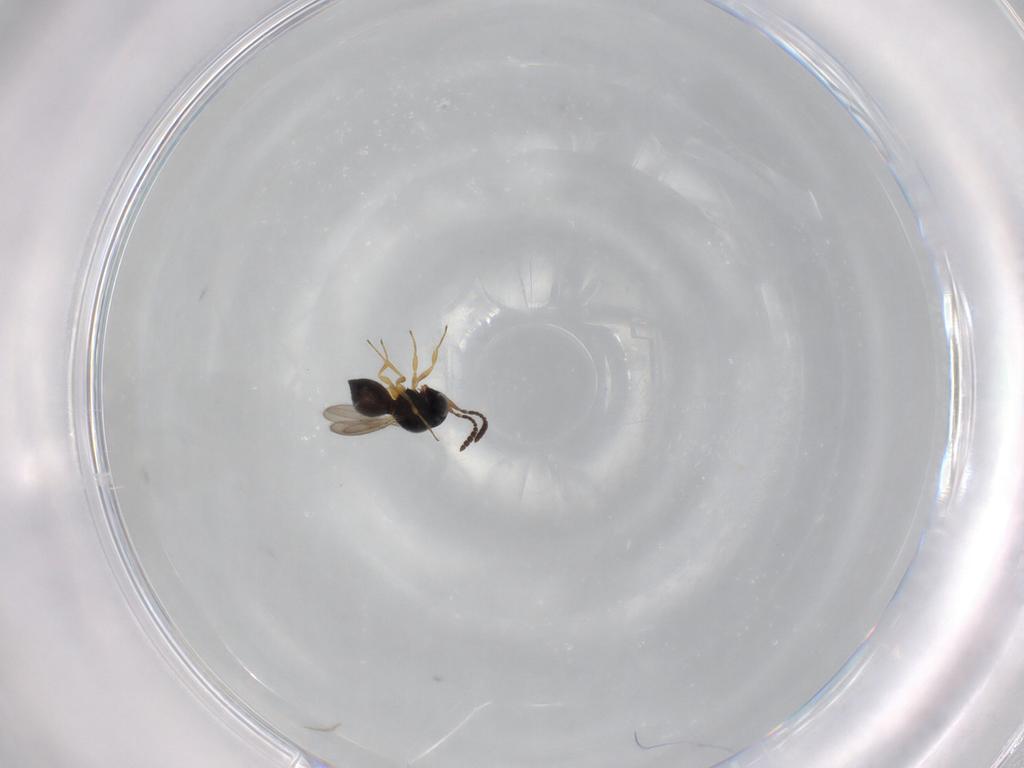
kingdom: Animalia
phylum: Arthropoda
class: Insecta
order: Hymenoptera
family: Scelionidae
